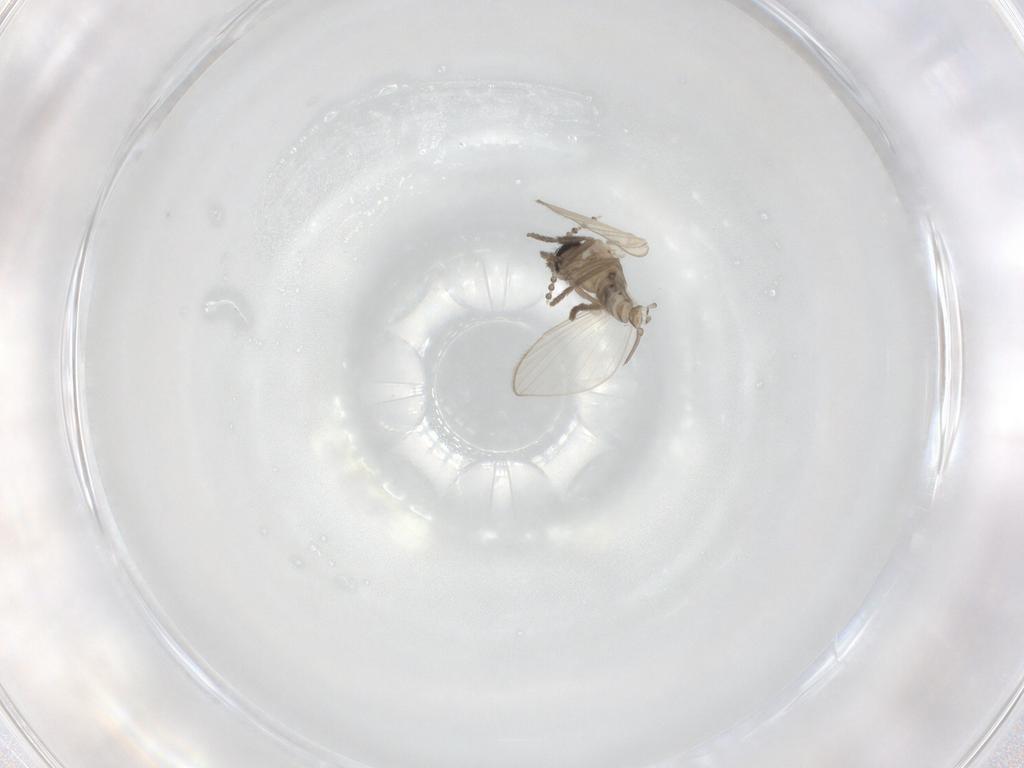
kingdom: Animalia
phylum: Arthropoda
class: Insecta
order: Diptera
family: Psychodidae
